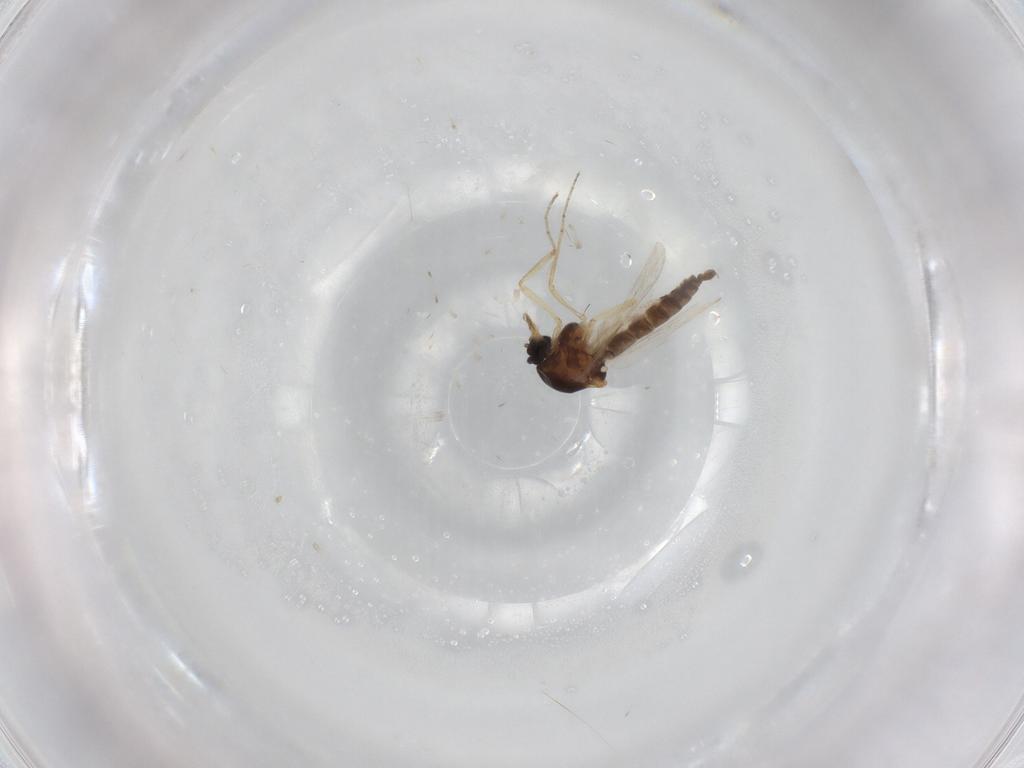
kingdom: Animalia
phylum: Arthropoda
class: Insecta
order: Diptera
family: Ceratopogonidae
